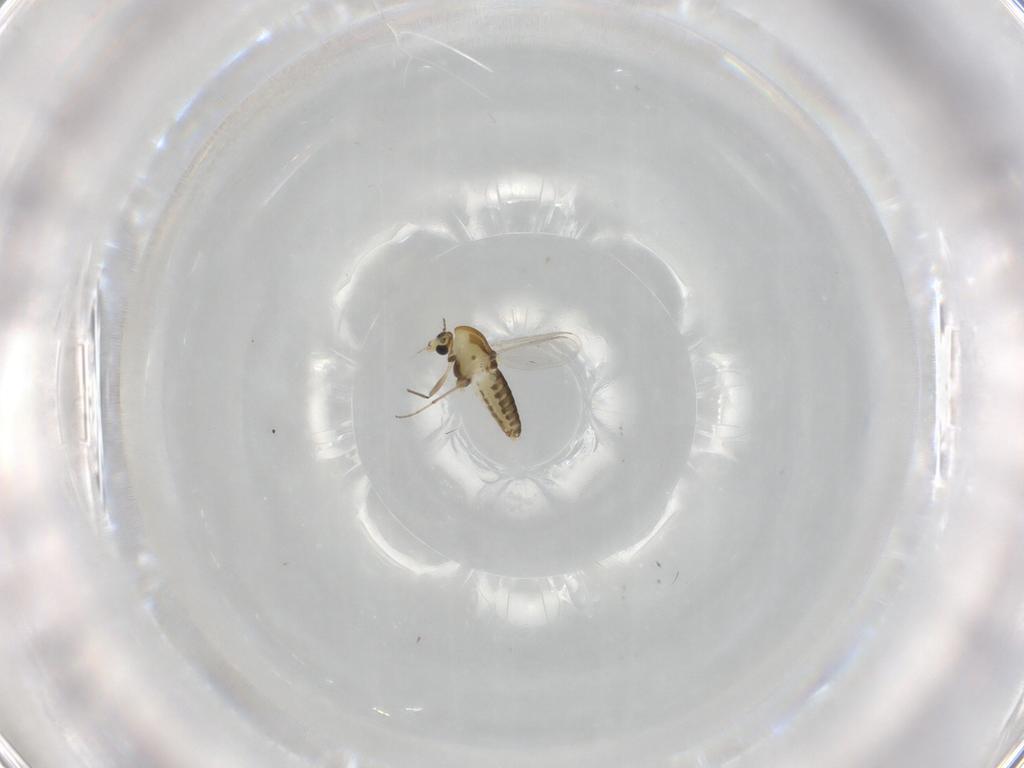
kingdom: Animalia
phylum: Arthropoda
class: Insecta
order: Diptera
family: Chironomidae
